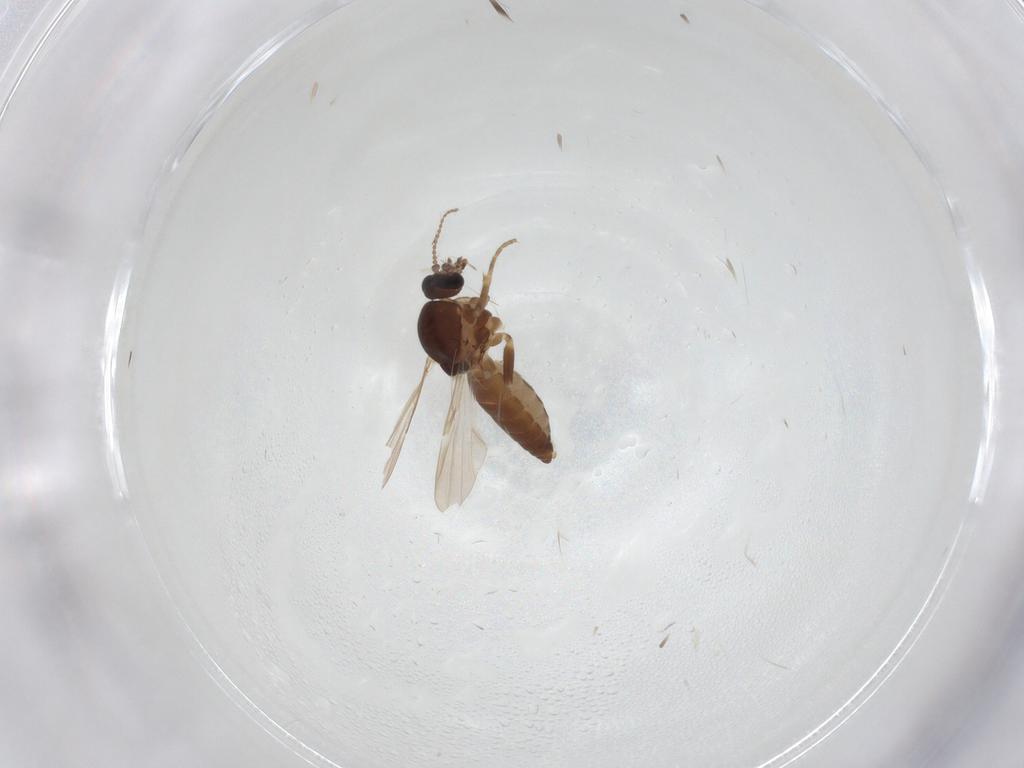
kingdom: Animalia
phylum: Arthropoda
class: Insecta
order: Diptera
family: Ceratopogonidae
